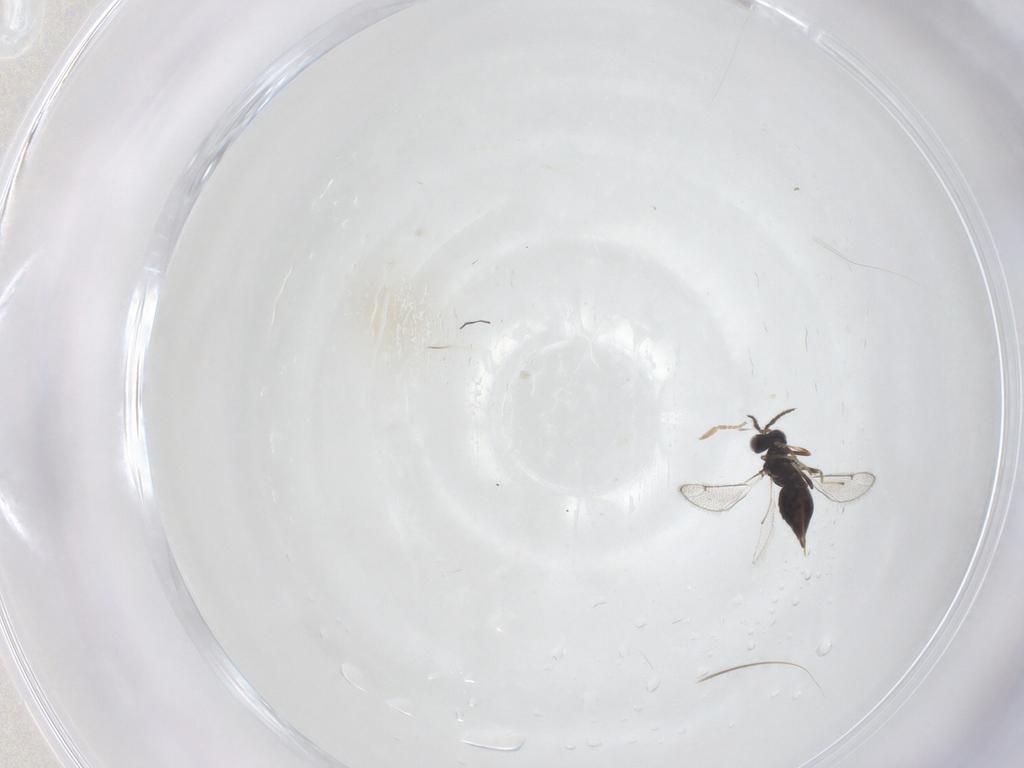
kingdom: Animalia
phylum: Arthropoda
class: Insecta
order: Hymenoptera
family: Eulophidae
